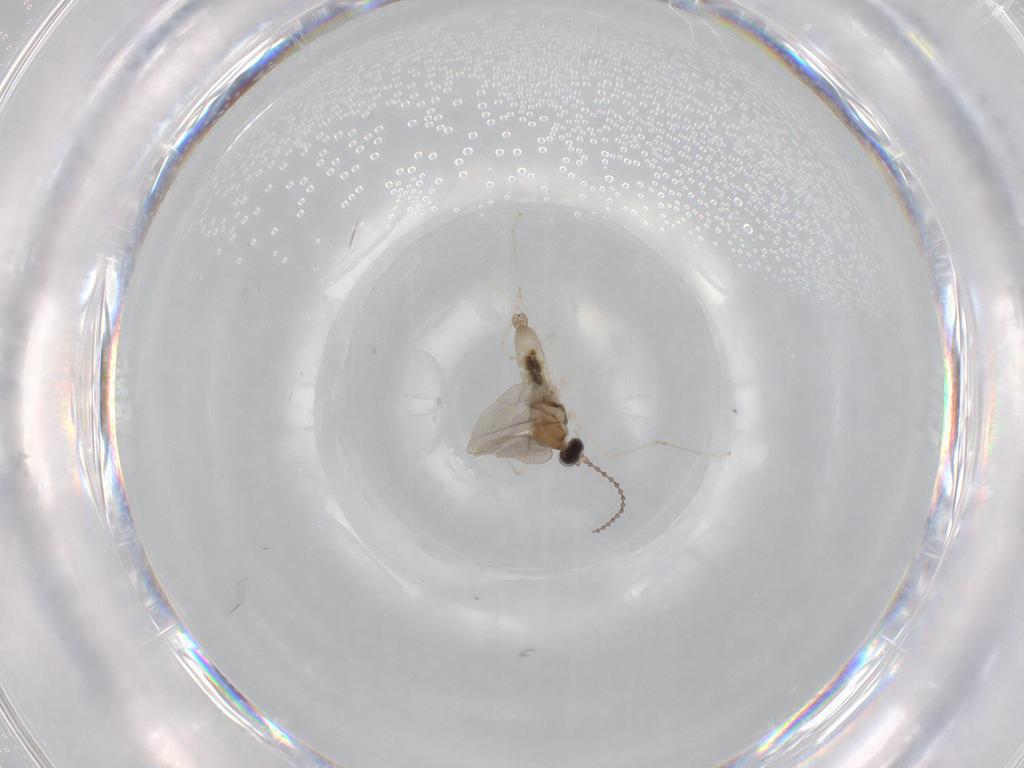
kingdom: Animalia
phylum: Arthropoda
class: Insecta
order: Diptera
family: Cecidomyiidae
